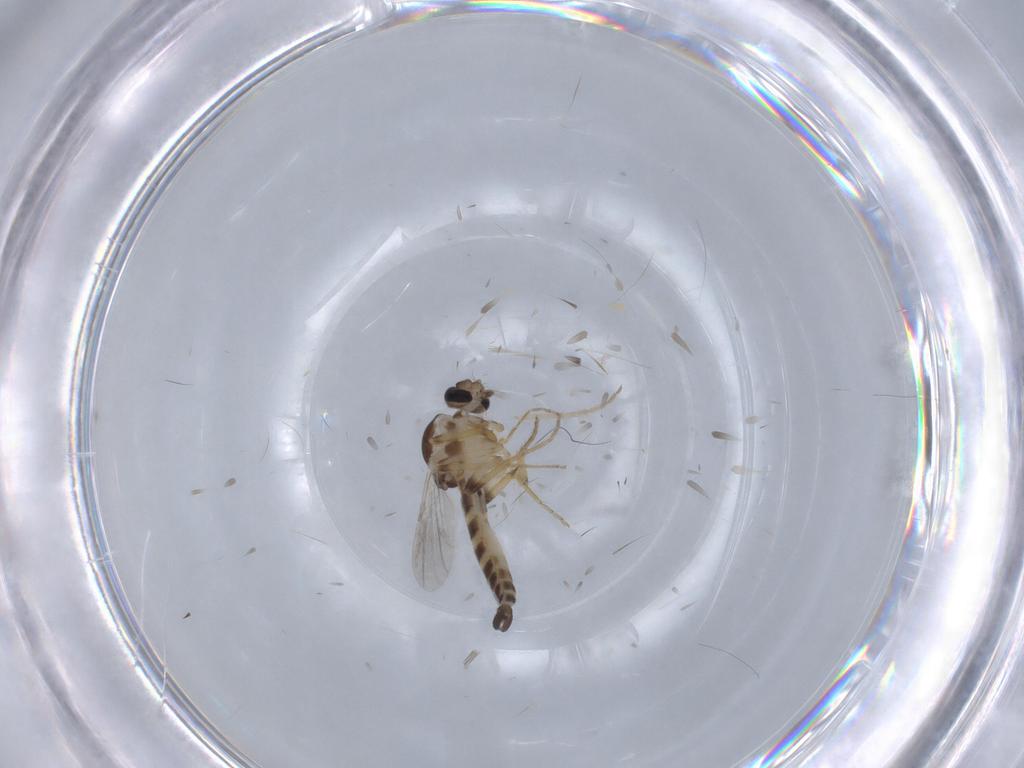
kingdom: Animalia
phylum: Arthropoda
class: Insecta
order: Diptera
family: Ceratopogonidae
